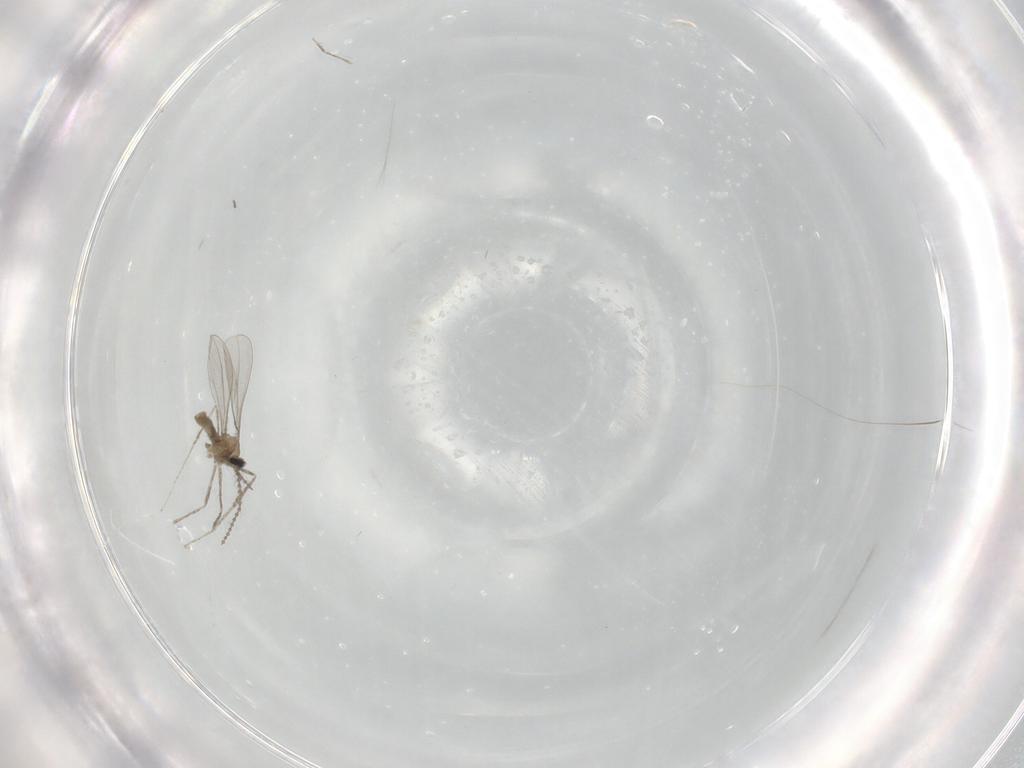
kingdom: Animalia
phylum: Arthropoda
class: Insecta
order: Diptera
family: Cecidomyiidae
